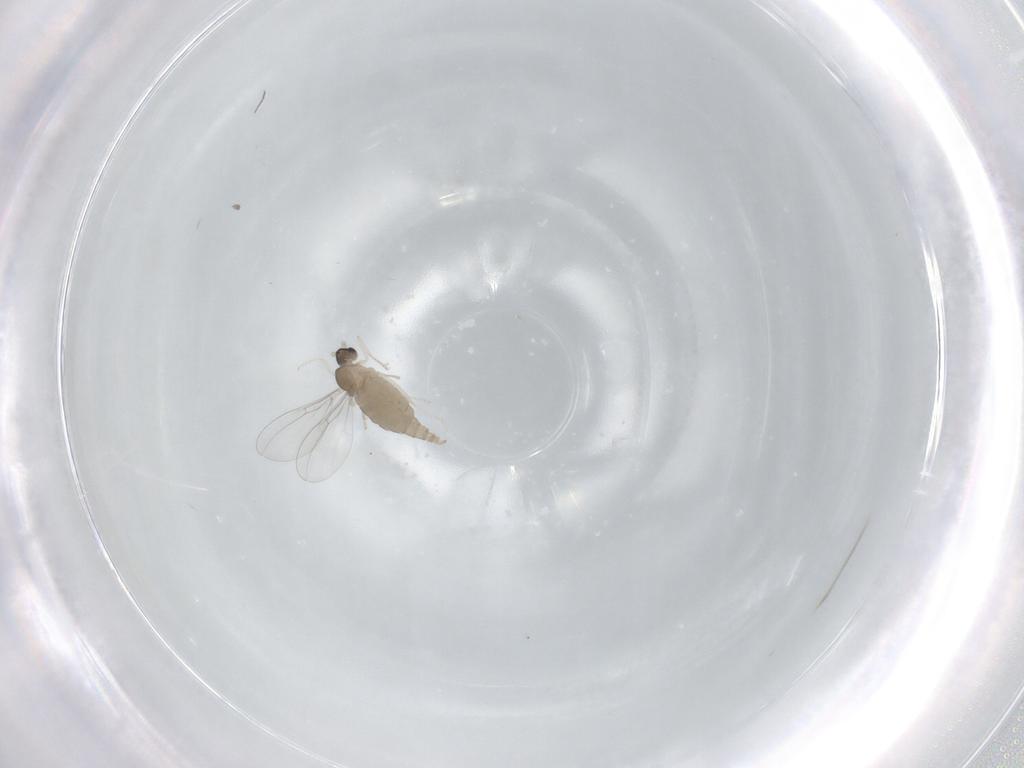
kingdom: Animalia
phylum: Arthropoda
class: Insecta
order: Diptera
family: Cecidomyiidae
